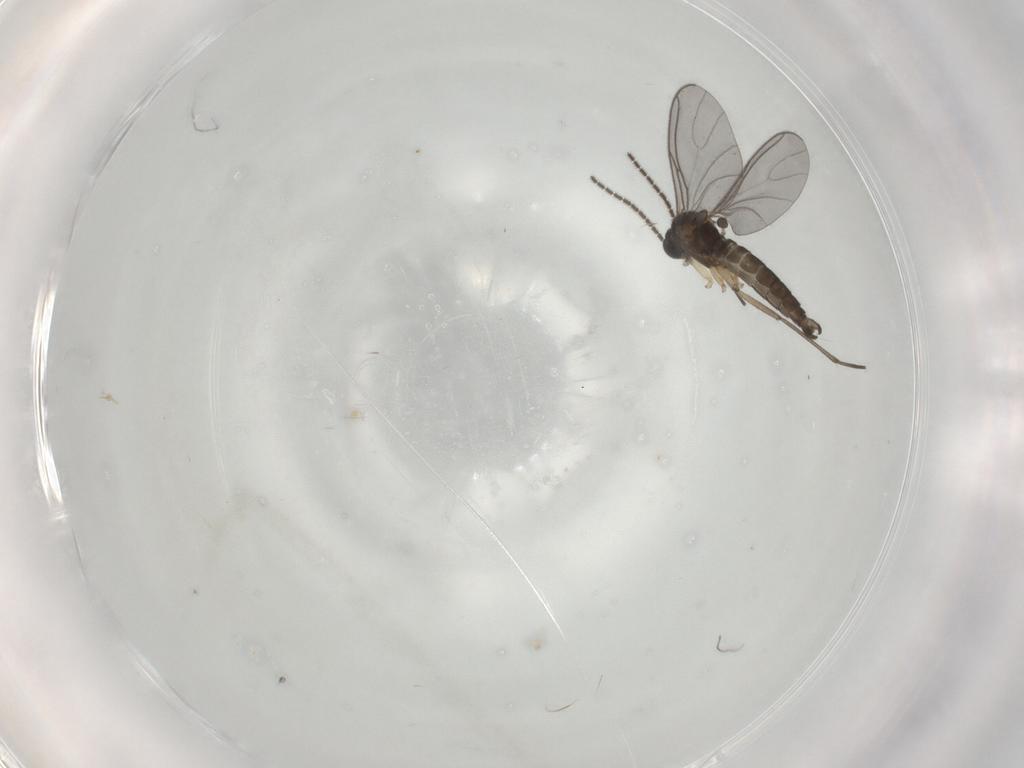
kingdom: Animalia
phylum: Arthropoda
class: Insecta
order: Diptera
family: Sciaridae
